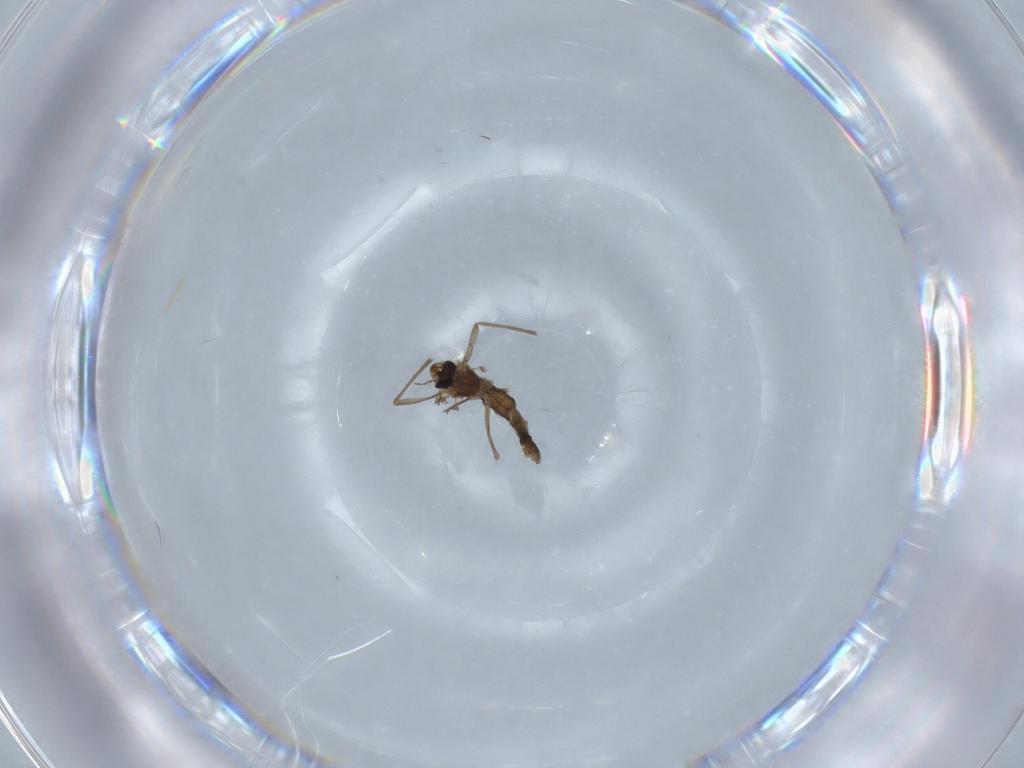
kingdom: Animalia
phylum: Arthropoda
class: Insecta
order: Diptera
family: Chironomidae
